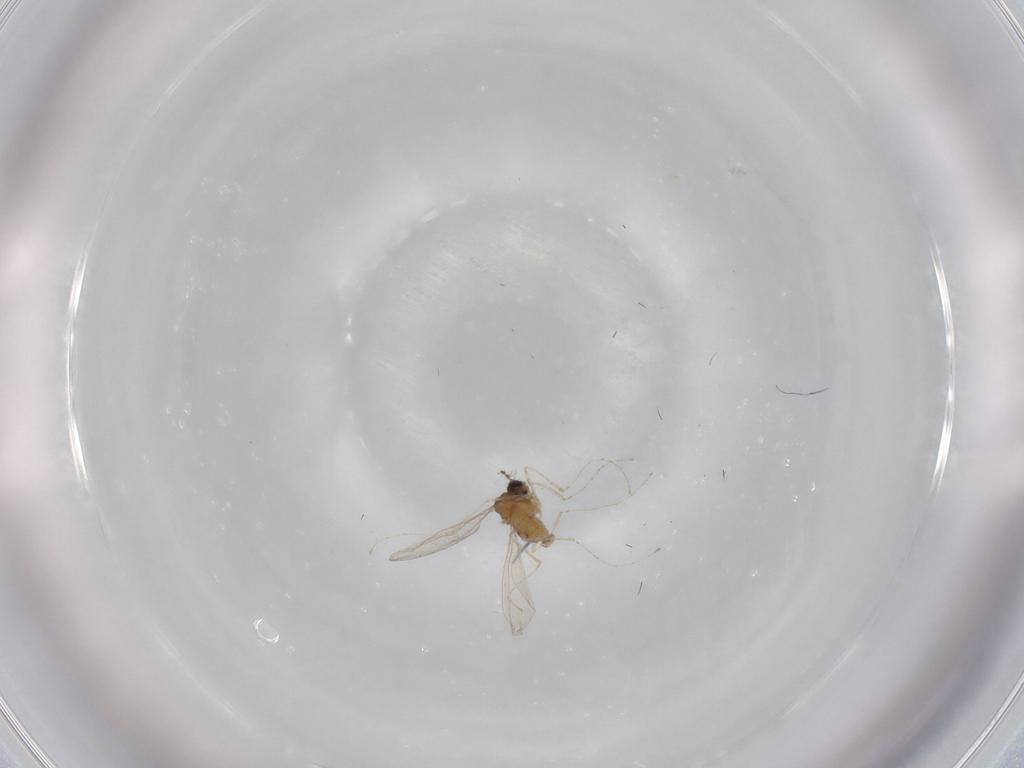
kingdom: Animalia
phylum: Arthropoda
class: Insecta
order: Diptera
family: Cecidomyiidae
